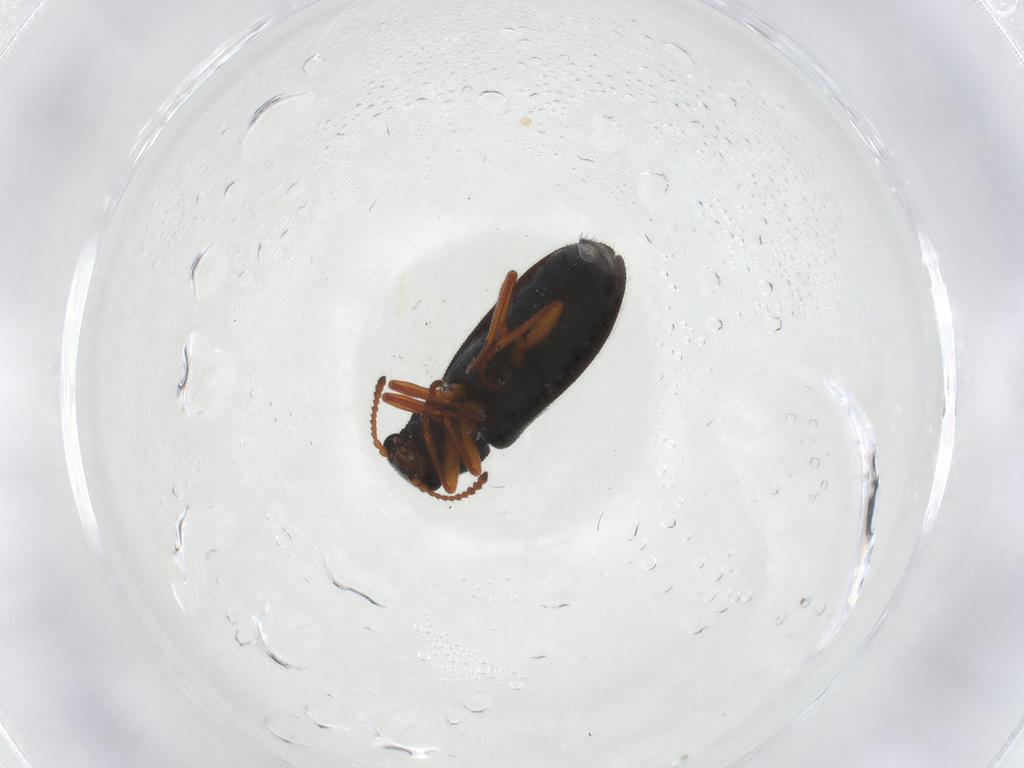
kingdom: Animalia
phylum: Arthropoda
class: Insecta
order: Coleoptera
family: Melyridae
